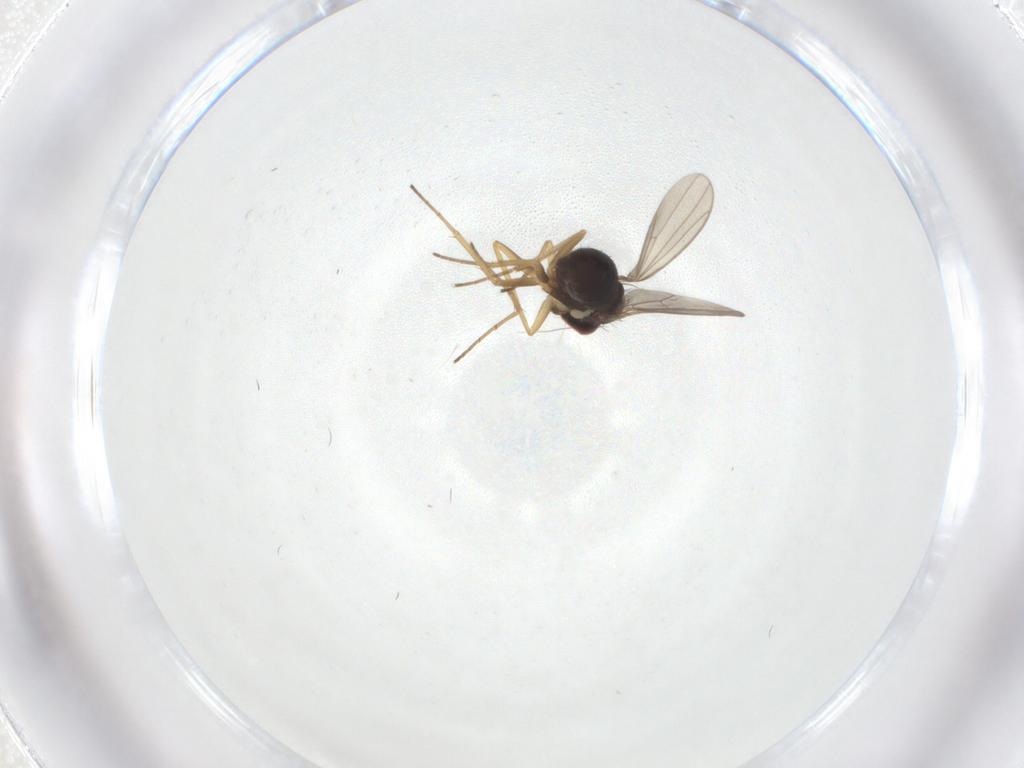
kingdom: Animalia
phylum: Arthropoda
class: Insecta
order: Diptera
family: Dolichopodidae
